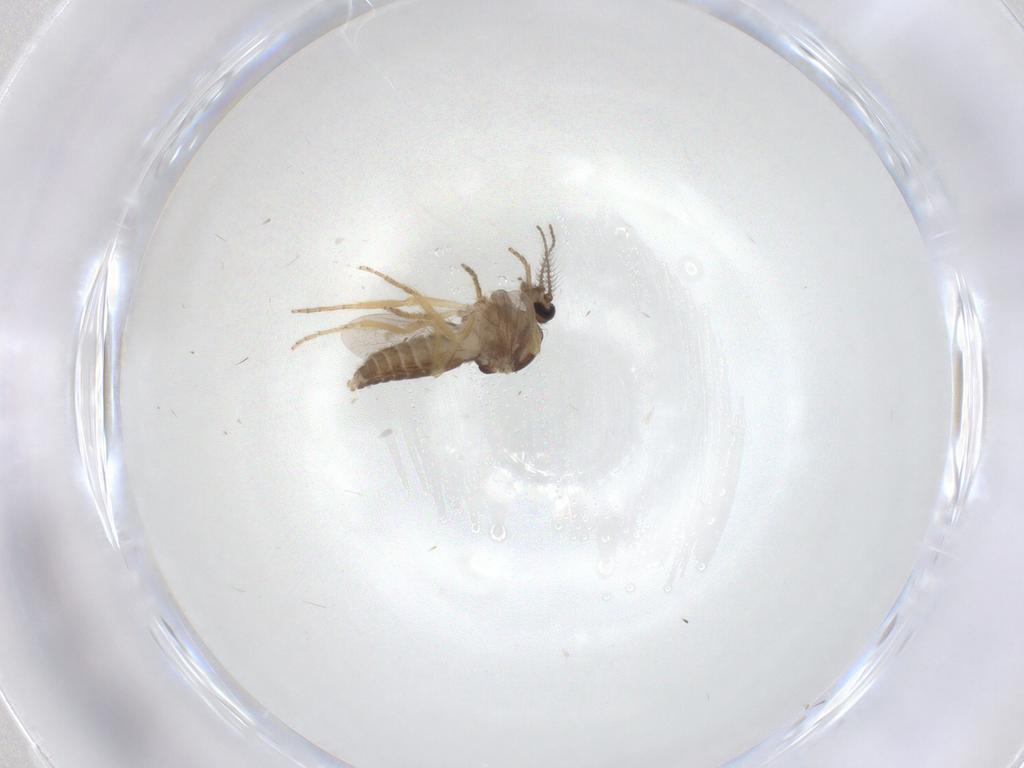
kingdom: Animalia
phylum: Arthropoda
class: Insecta
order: Diptera
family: Ceratopogonidae
